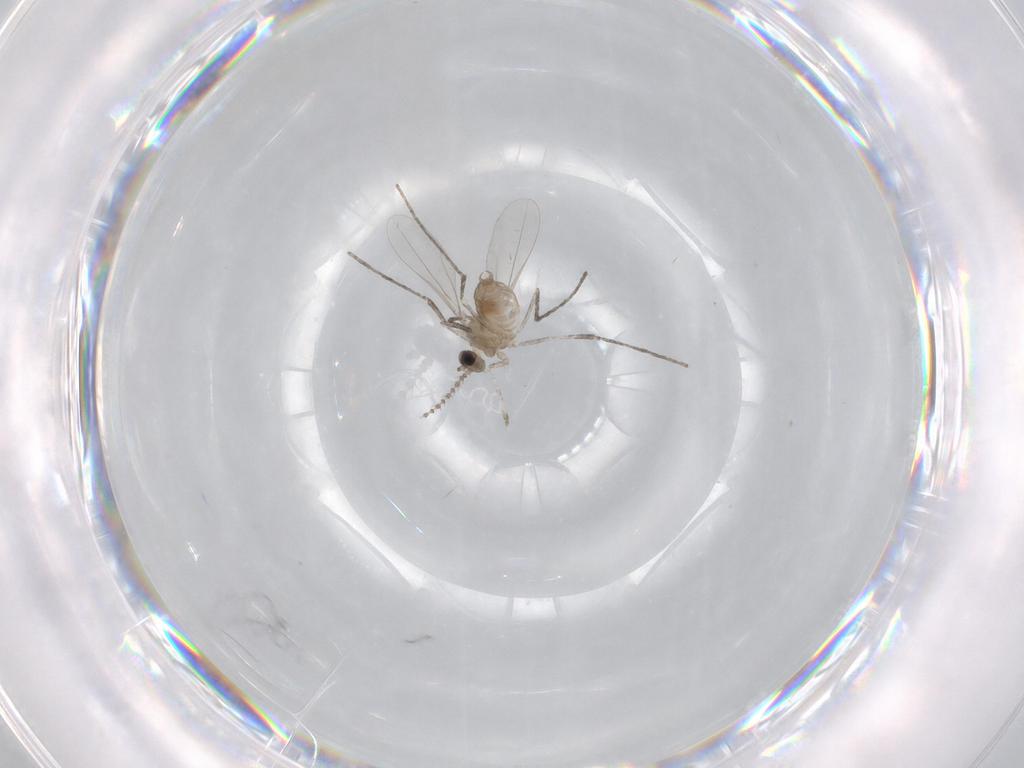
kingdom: Animalia
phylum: Arthropoda
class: Insecta
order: Diptera
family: Cecidomyiidae
